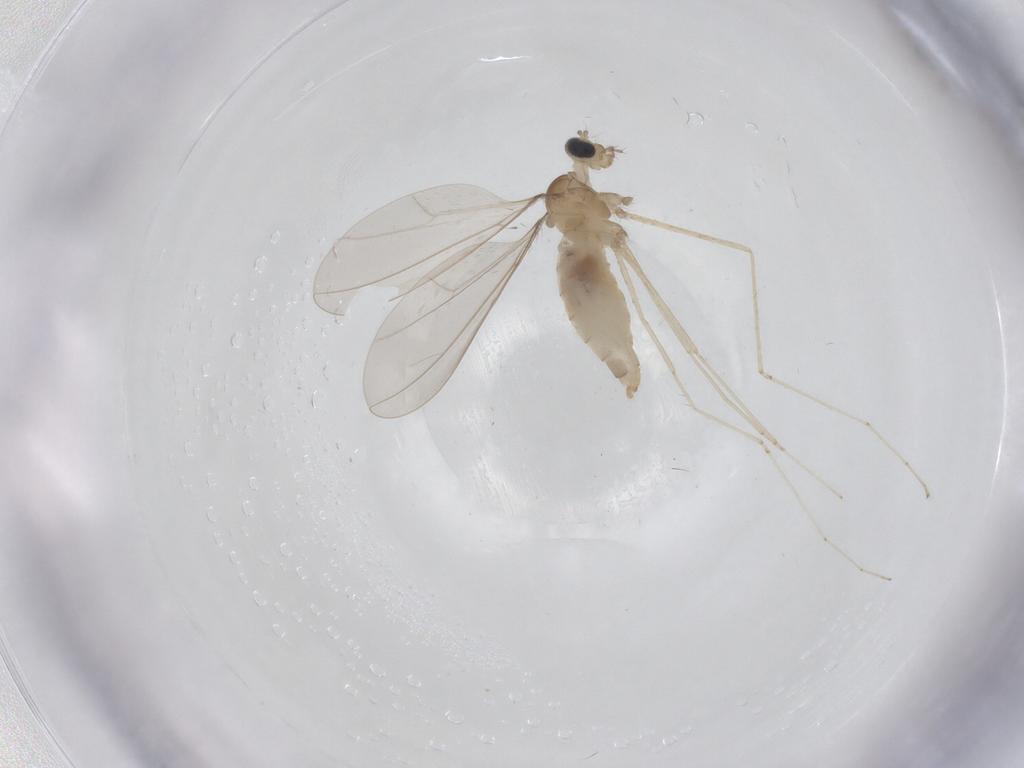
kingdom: Animalia
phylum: Arthropoda
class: Insecta
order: Diptera
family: Cecidomyiidae
